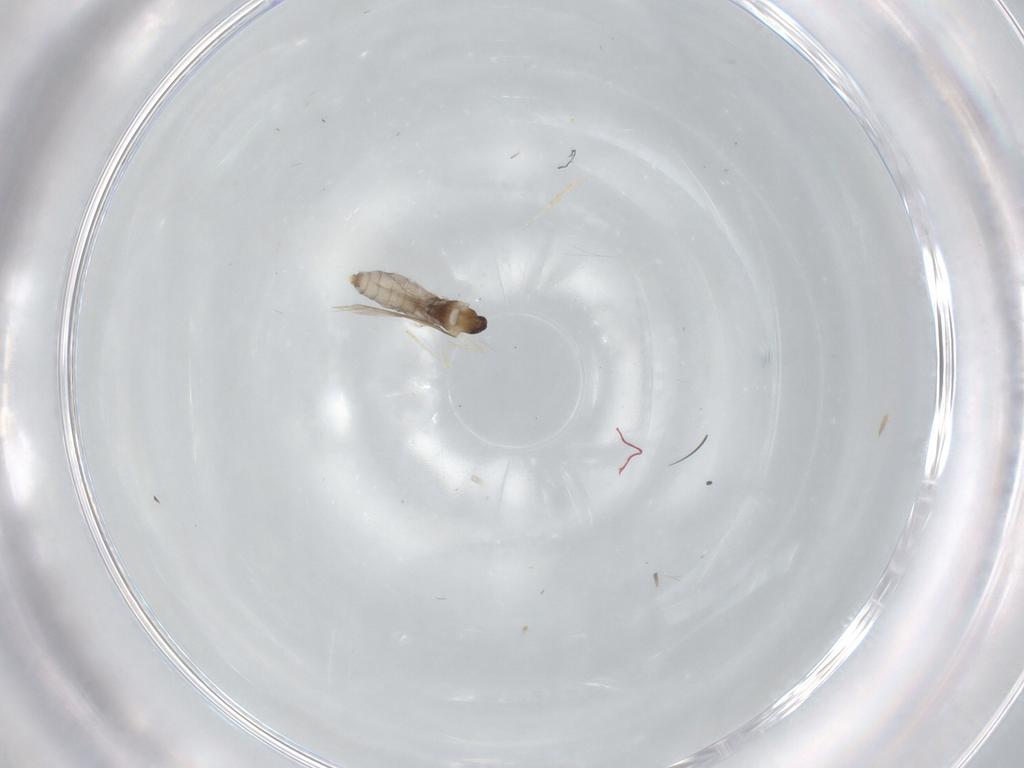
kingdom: Animalia
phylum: Arthropoda
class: Insecta
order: Diptera
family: Cecidomyiidae
